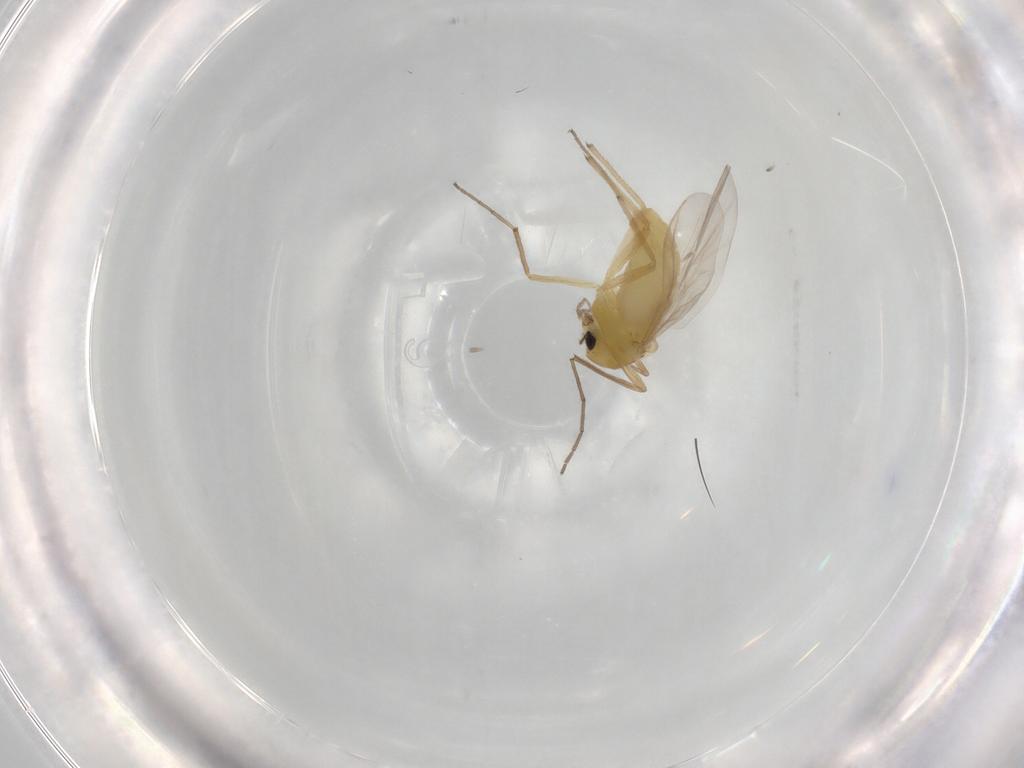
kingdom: Animalia
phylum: Arthropoda
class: Insecta
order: Diptera
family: Chironomidae
